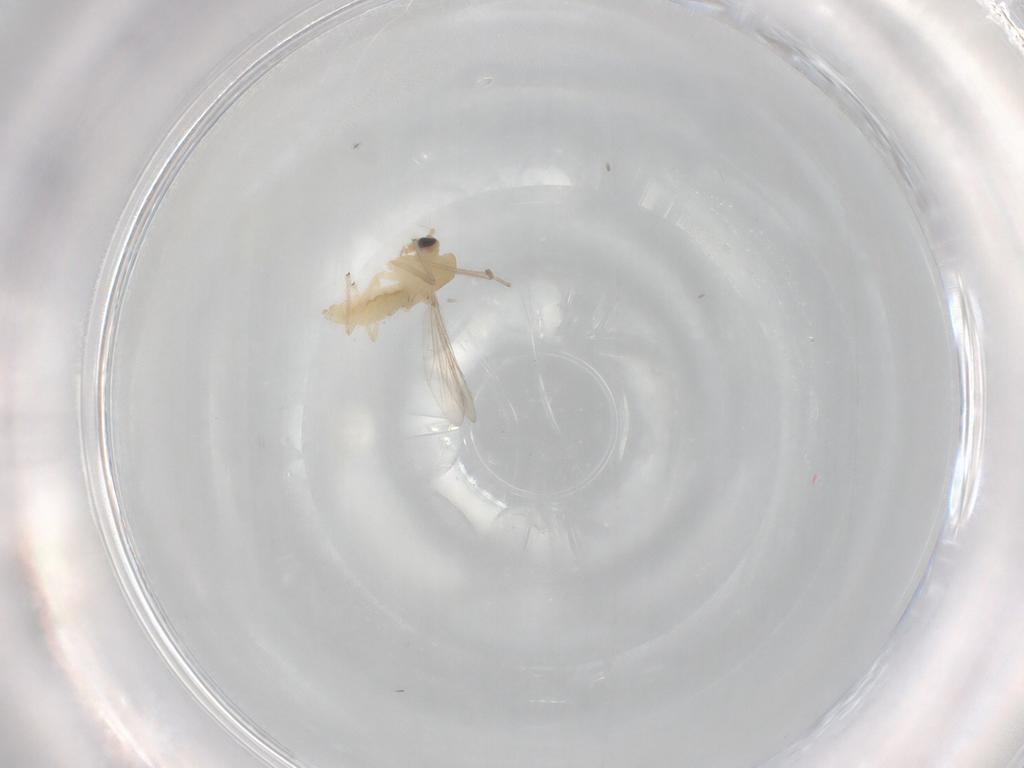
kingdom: Animalia
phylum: Arthropoda
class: Insecta
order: Diptera
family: Chironomidae
